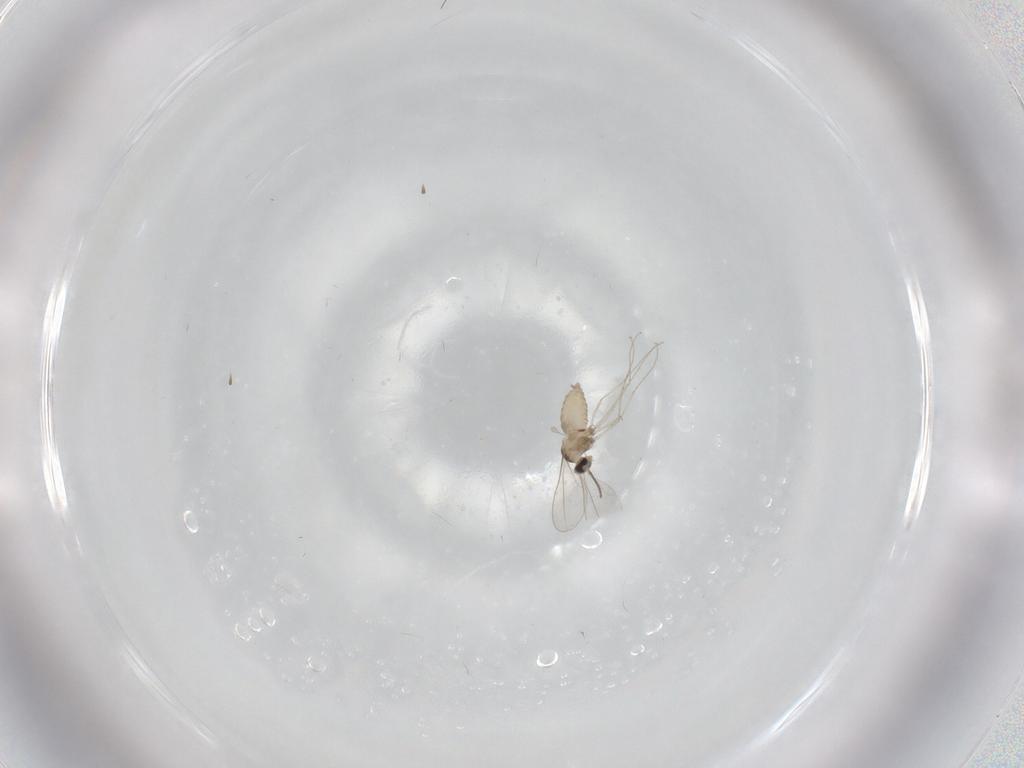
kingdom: Animalia
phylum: Arthropoda
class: Insecta
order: Diptera
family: Cecidomyiidae
